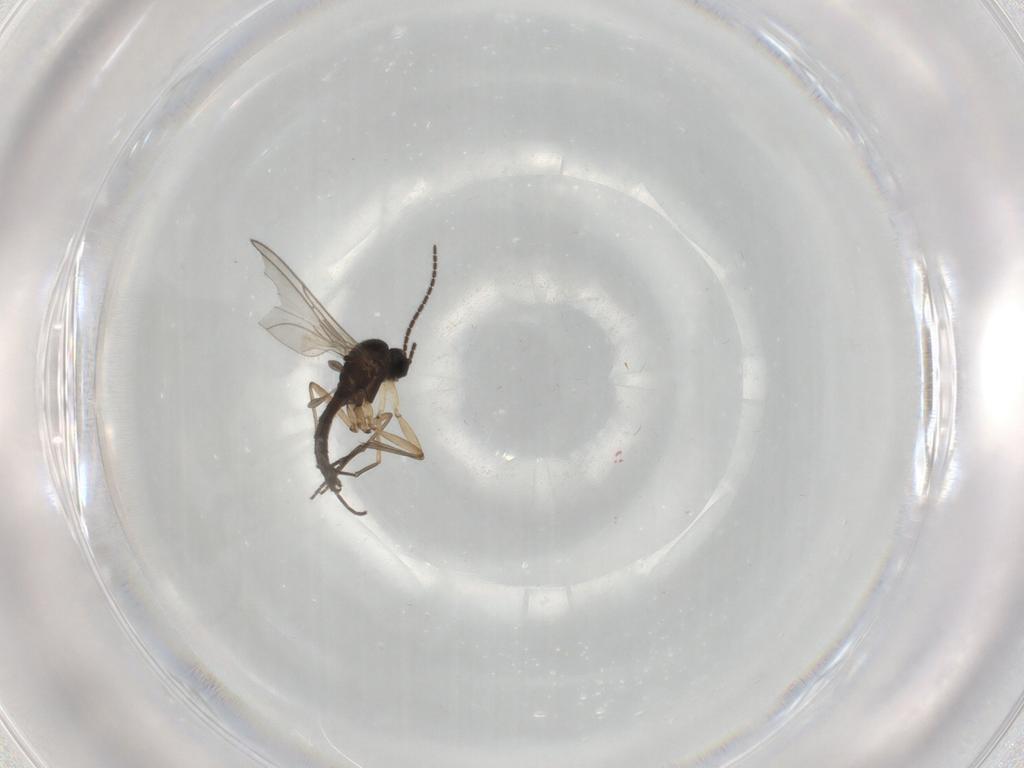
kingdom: Animalia
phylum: Arthropoda
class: Insecta
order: Diptera
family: Sciaridae
